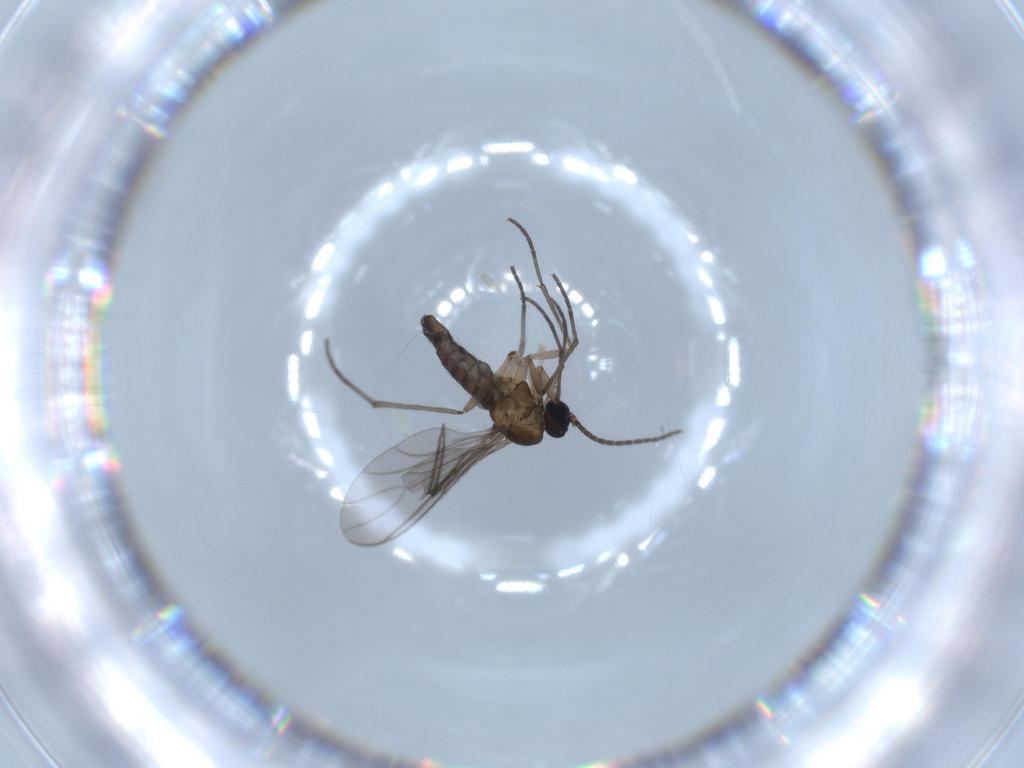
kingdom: Animalia
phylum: Arthropoda
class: Insecta
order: Diptera
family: Sciaridae
